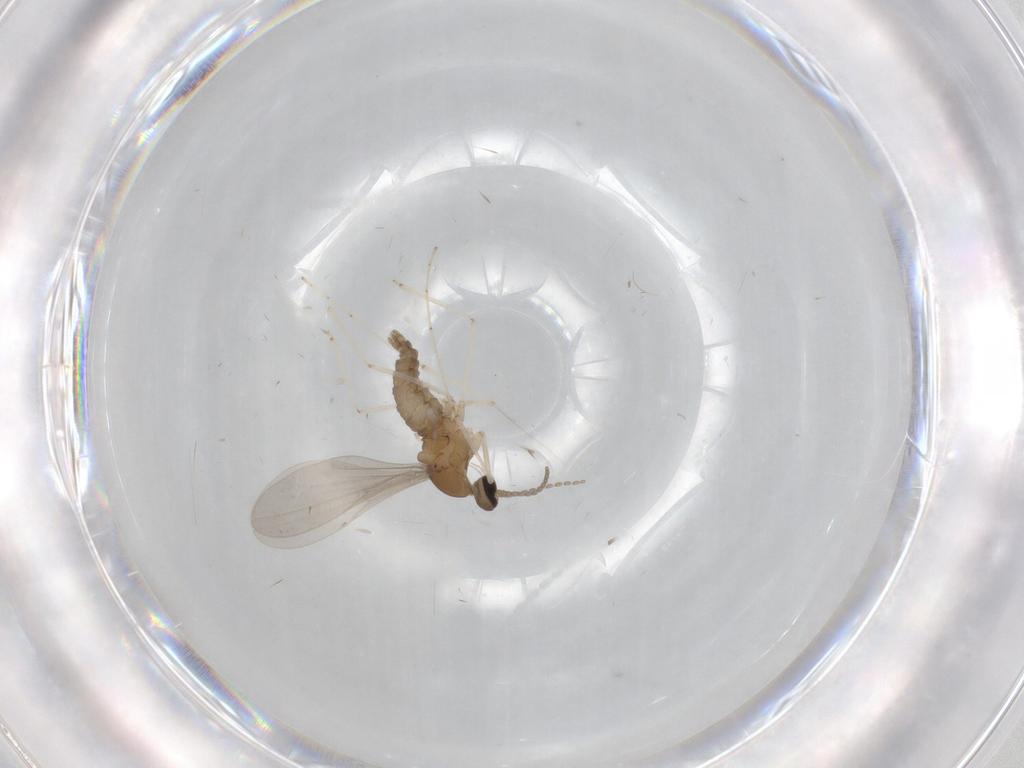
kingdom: Animalia
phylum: Arthropoda
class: Insecta
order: Diptera
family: Cecidomyiidae
